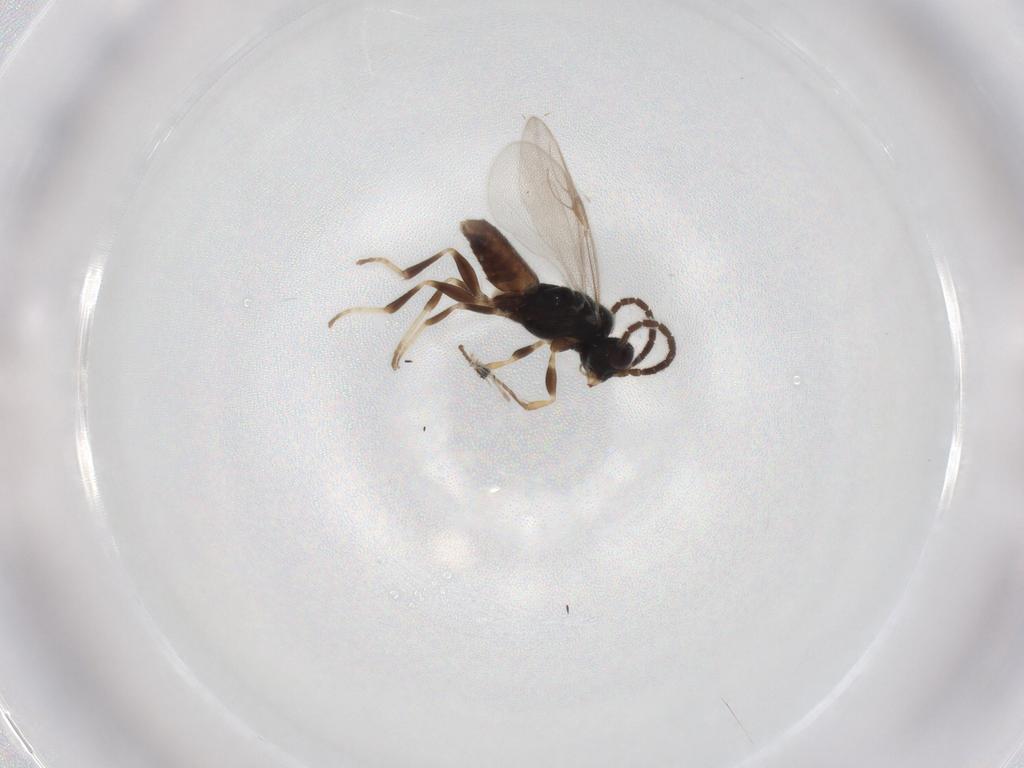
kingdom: Animalia
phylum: Arthropoda
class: Insecta
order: Hymenoptera
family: Dryinidae
